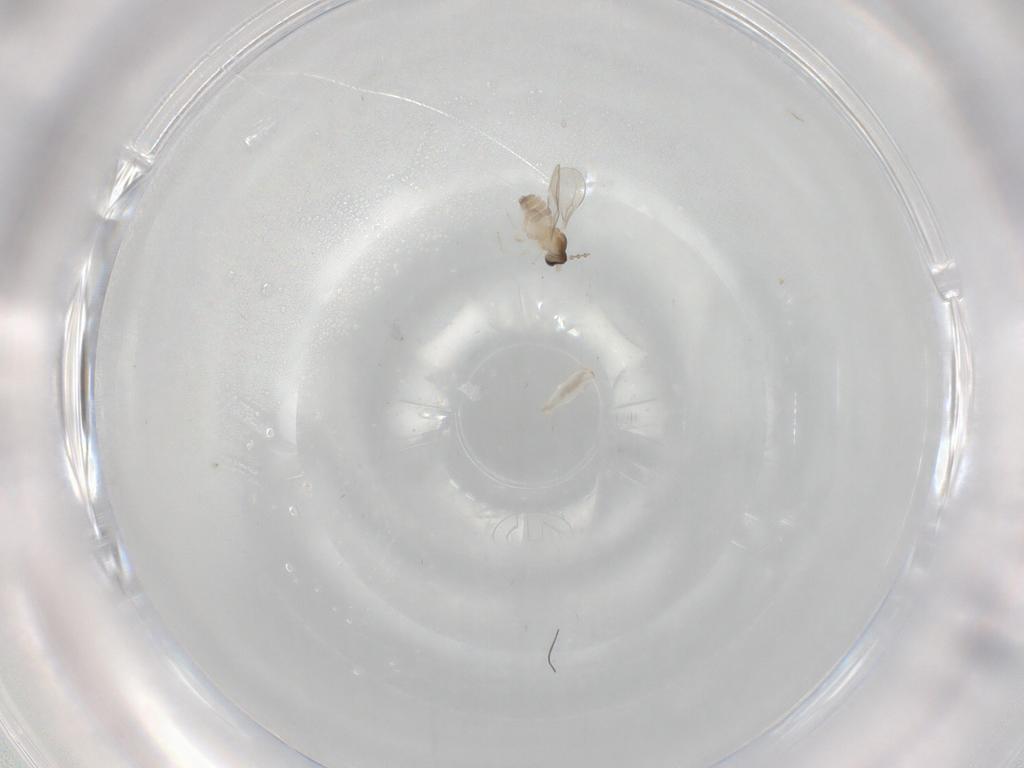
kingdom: Animalia
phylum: Arthropoda
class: Insecta
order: Diptera
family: Cecidomyiidae
